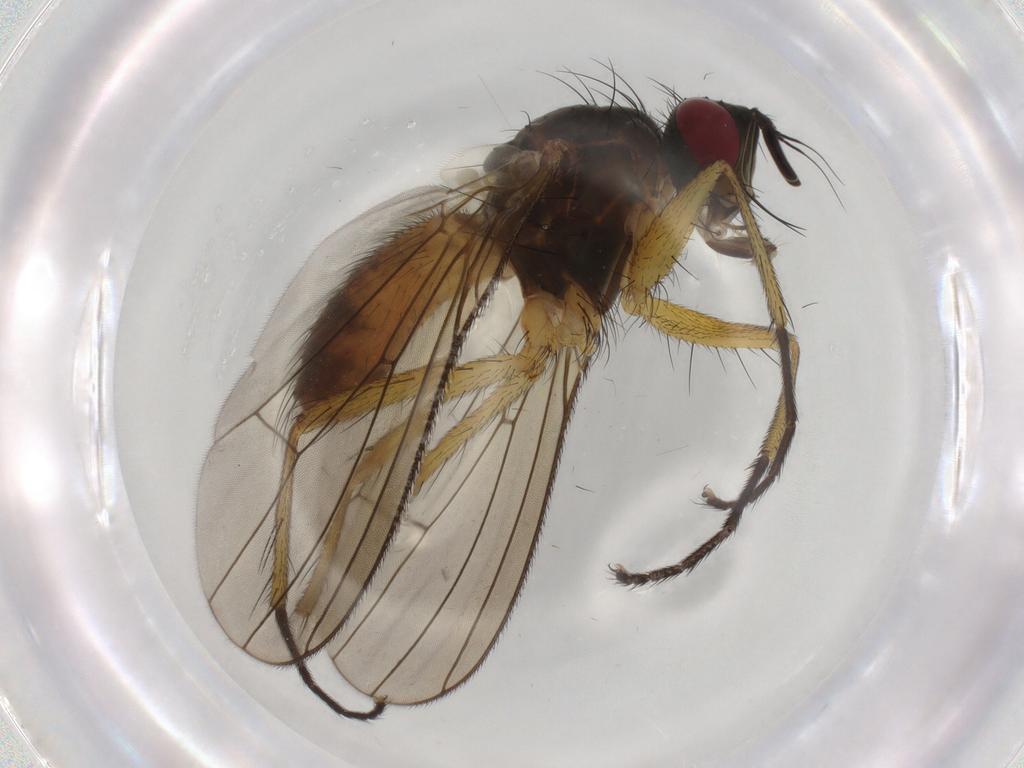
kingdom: Animalia
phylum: Arthropoda
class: Insecta
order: Diptera
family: Muscidae
